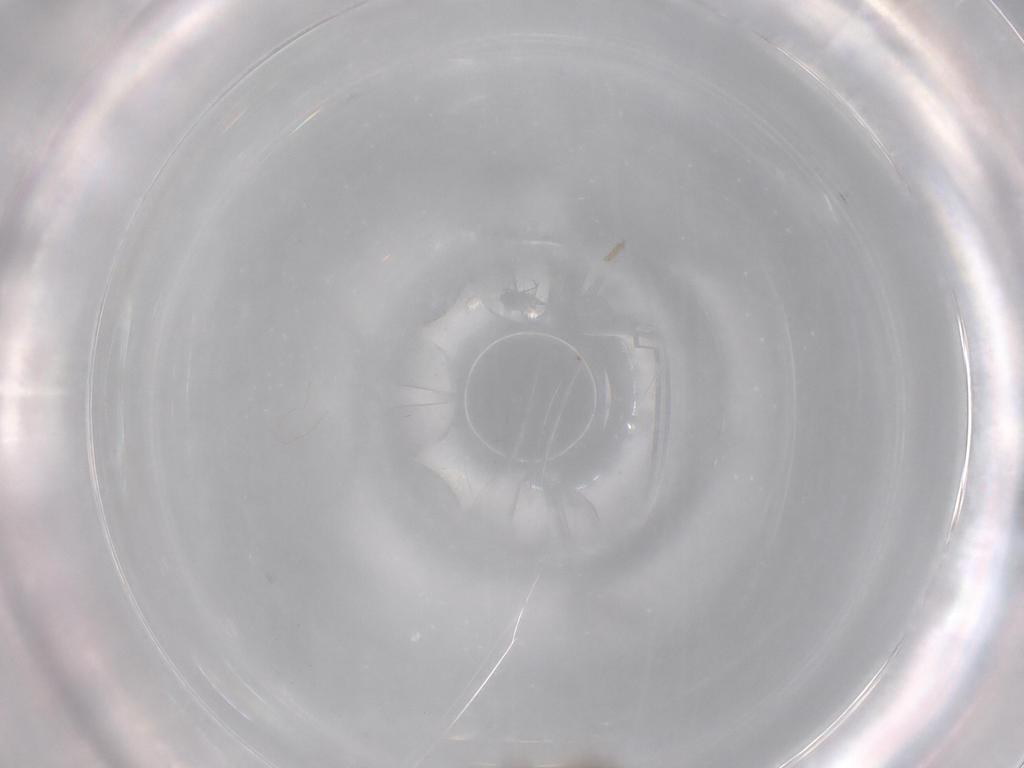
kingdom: Animalia
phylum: Arthropoda
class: Insecta
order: Diptera
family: Cecidomyiidae
